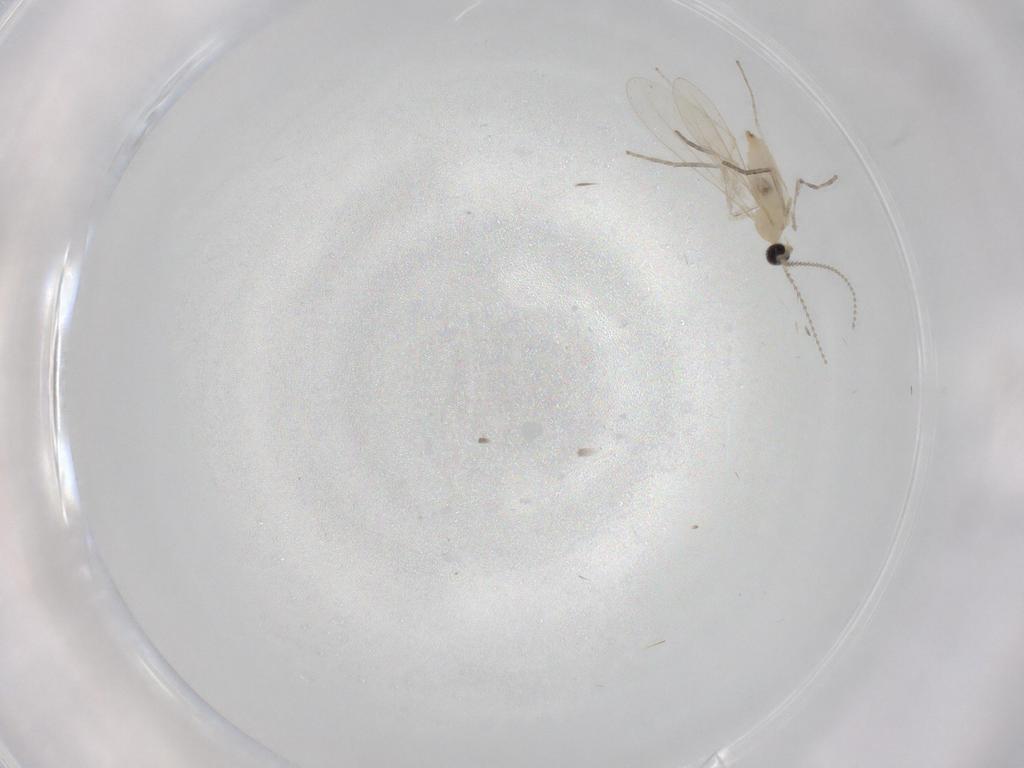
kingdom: Animalia
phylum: Arthropoda
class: Insecta
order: Diptera
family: Cecidomyiidae
